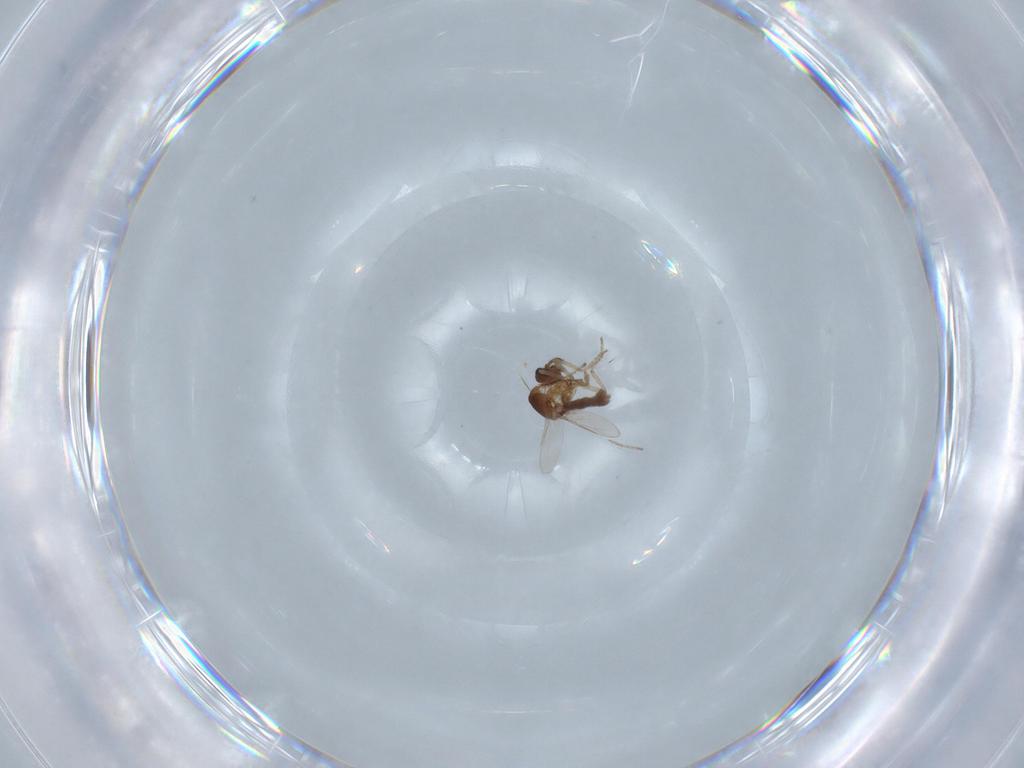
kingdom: Animalia
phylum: Arthropoda
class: Insecta
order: Diptera
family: Ceratopogonidae
